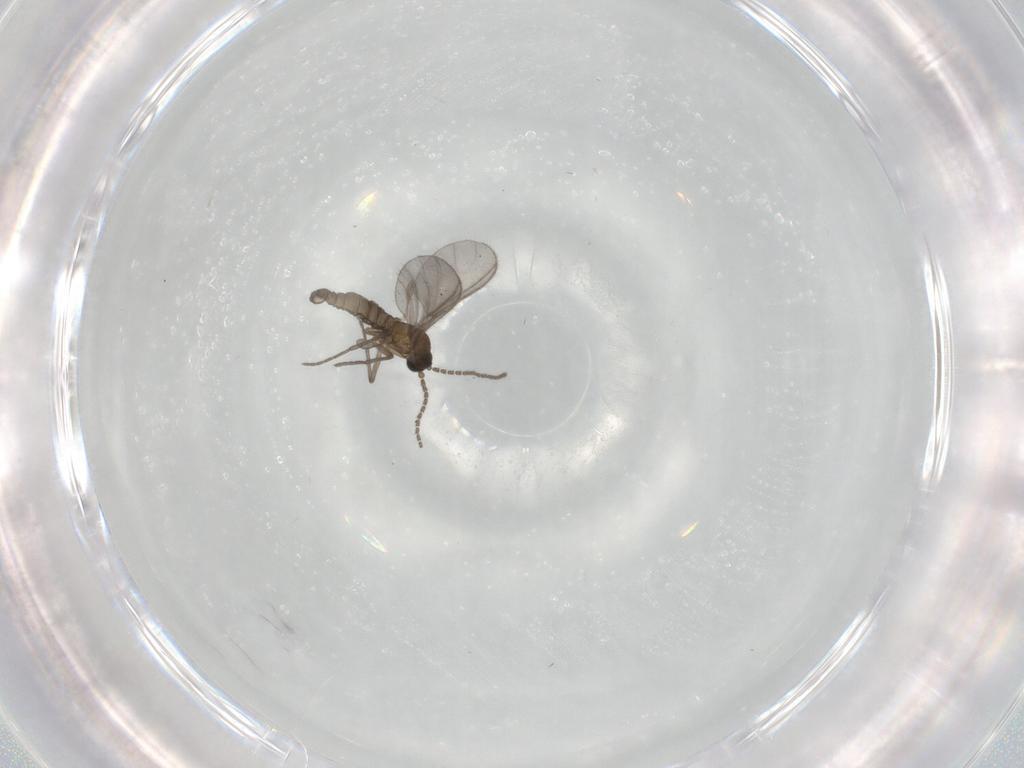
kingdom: Animalia
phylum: Arthropoda
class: Insecta
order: Diptera
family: Sciaridae
